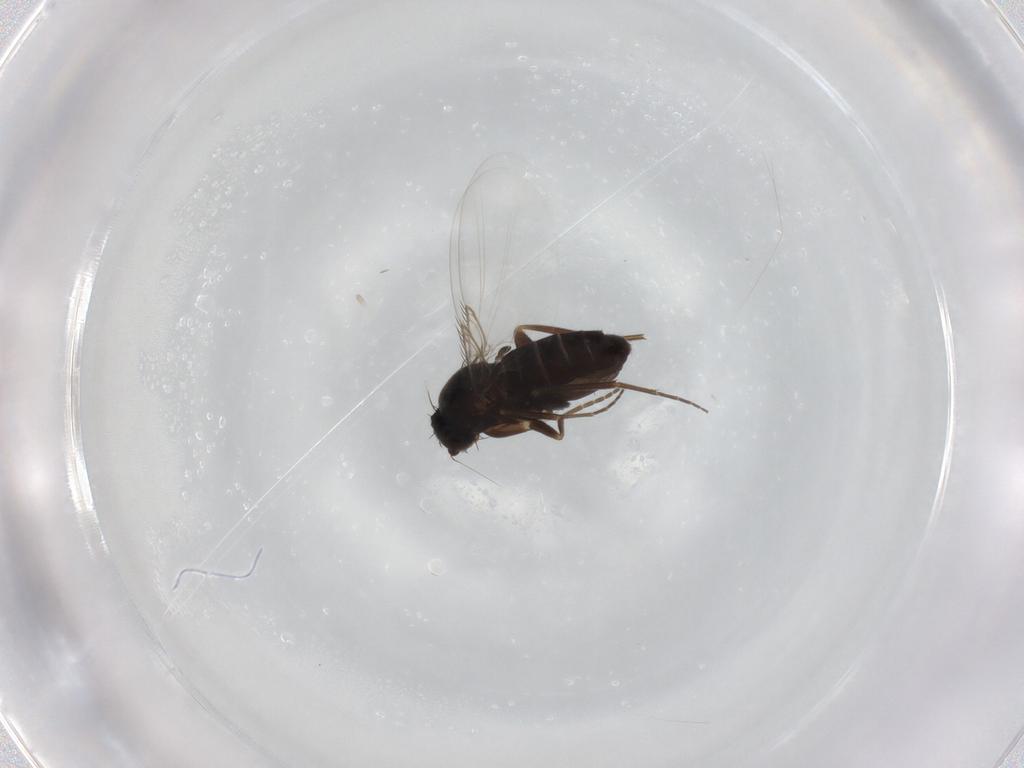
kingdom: Animalia
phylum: Arthropoda
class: Insecta
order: Diptera
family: Phoridae
